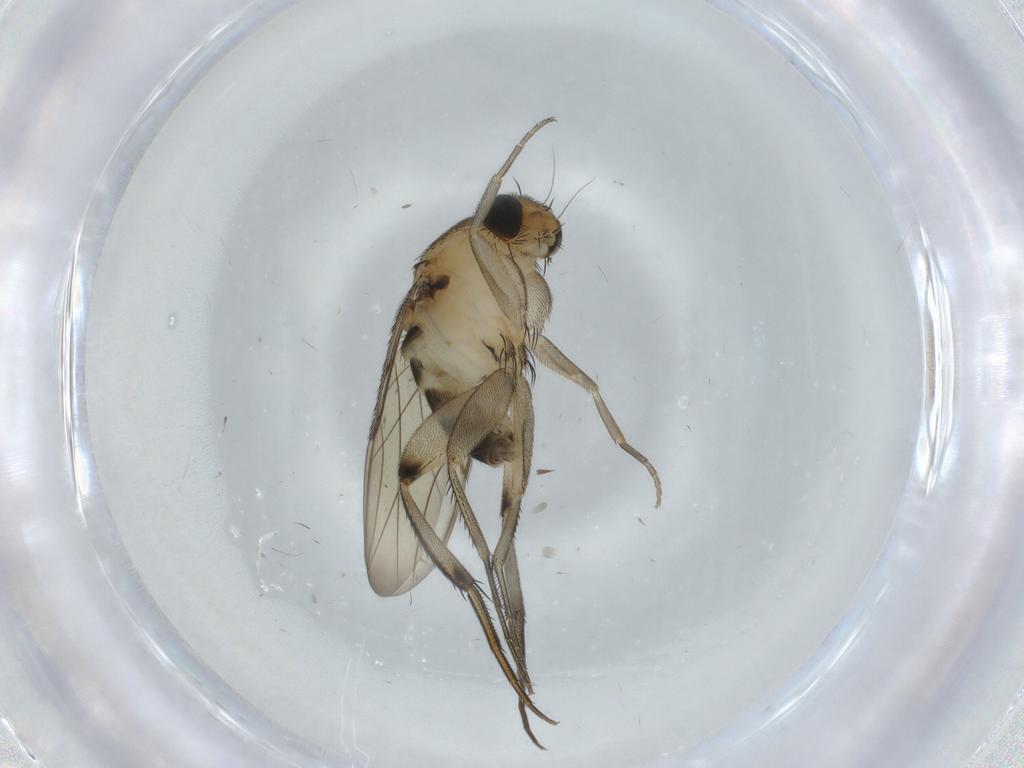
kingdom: Animalia
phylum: Arthropoda
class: Insecta
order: Diptera
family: Phoridae
